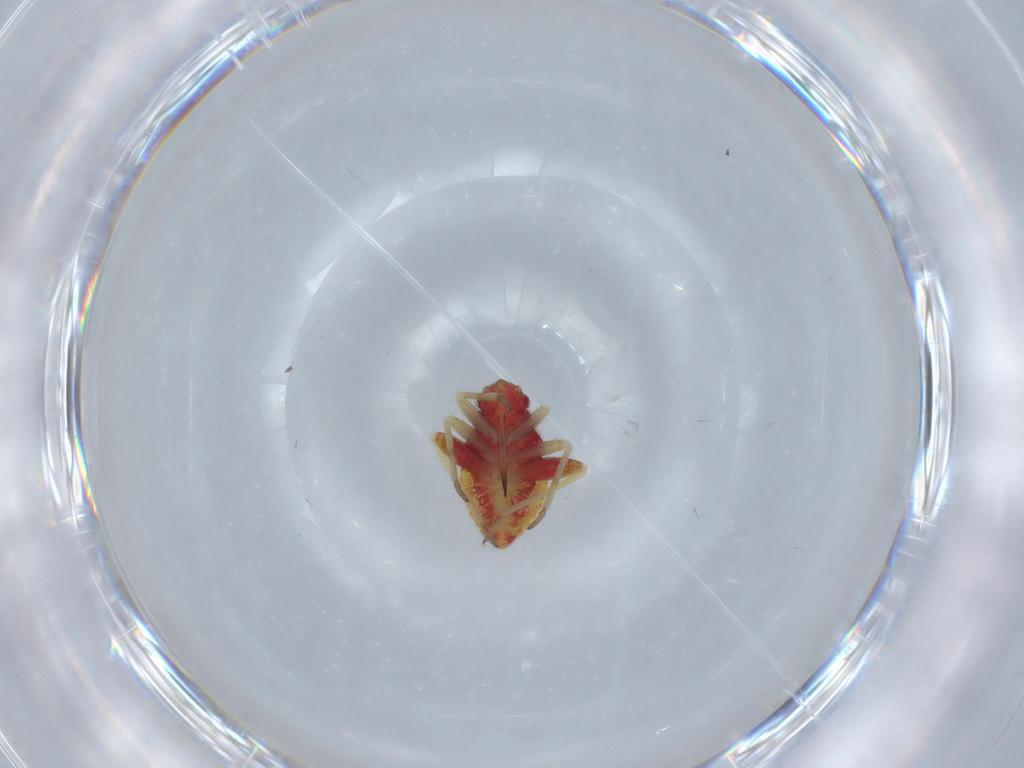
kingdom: Animalia
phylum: Arthropoda
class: Insecta
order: Hemiptera
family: Miridae
